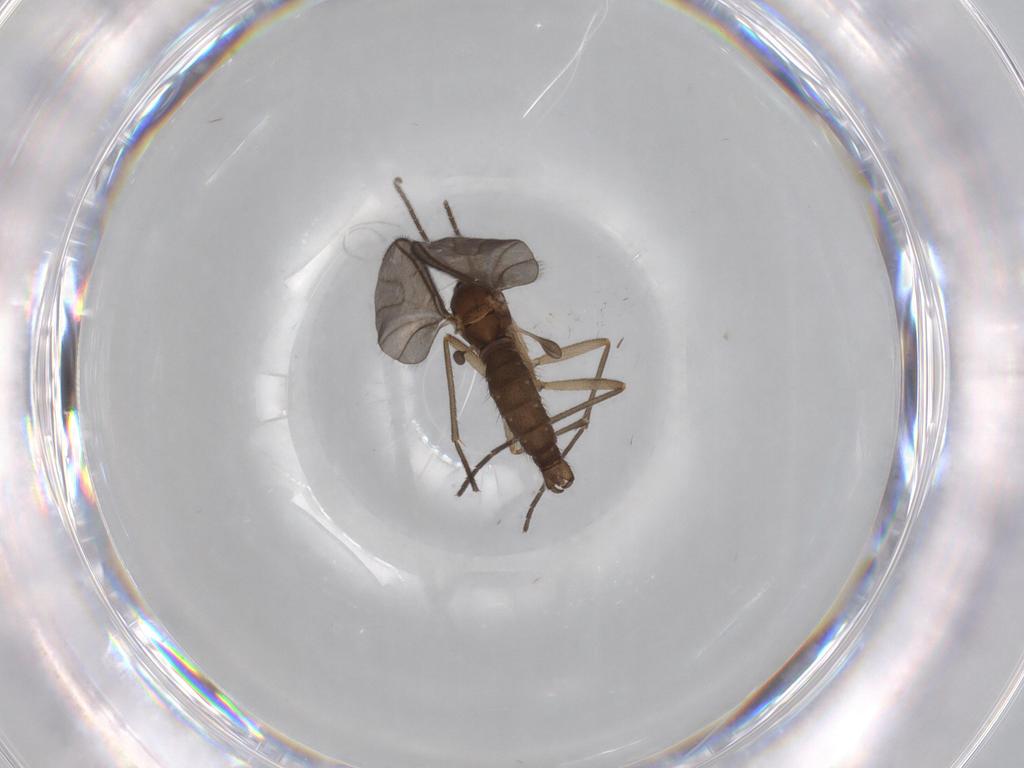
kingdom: Animalia
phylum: Arthropoda
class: Insecta
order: Diptera
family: Sciaridae
